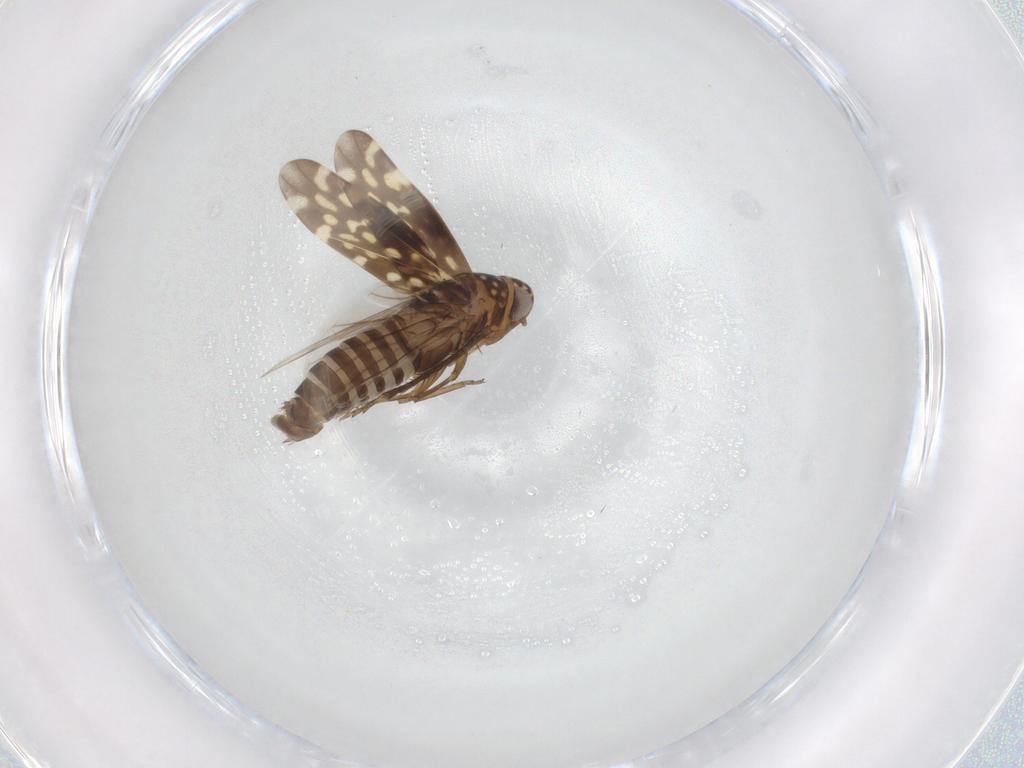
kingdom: Animalia
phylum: Arthropoda
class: Insecta
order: Hemiptera
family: Cicadellidae
